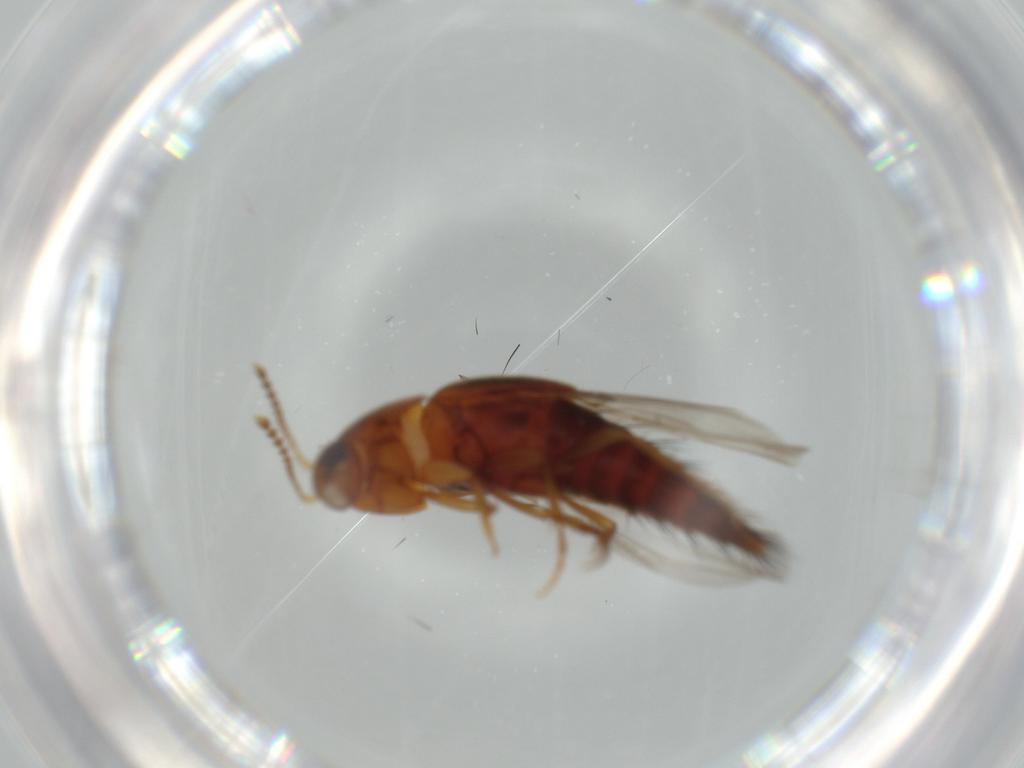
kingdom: Animalia
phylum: Arthropoda
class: Insecta
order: Coleoptera
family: Staphylinidae
